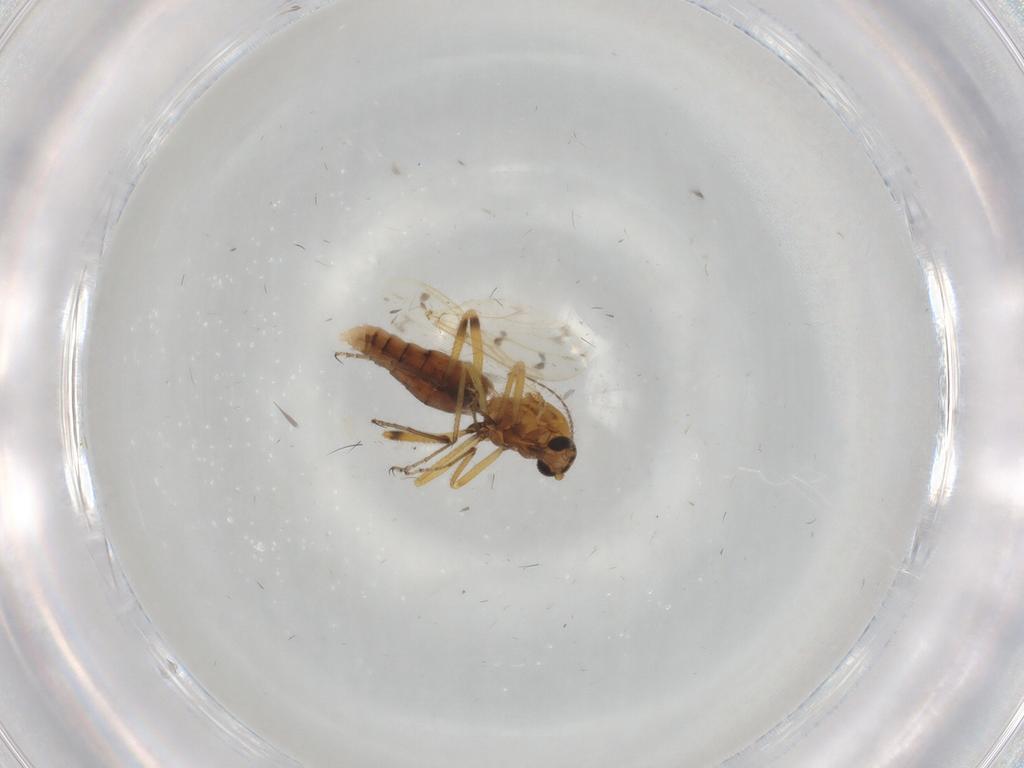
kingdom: Animalia
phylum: Arthropoda
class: Insecta
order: Diptera
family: Ceratopogonidae
